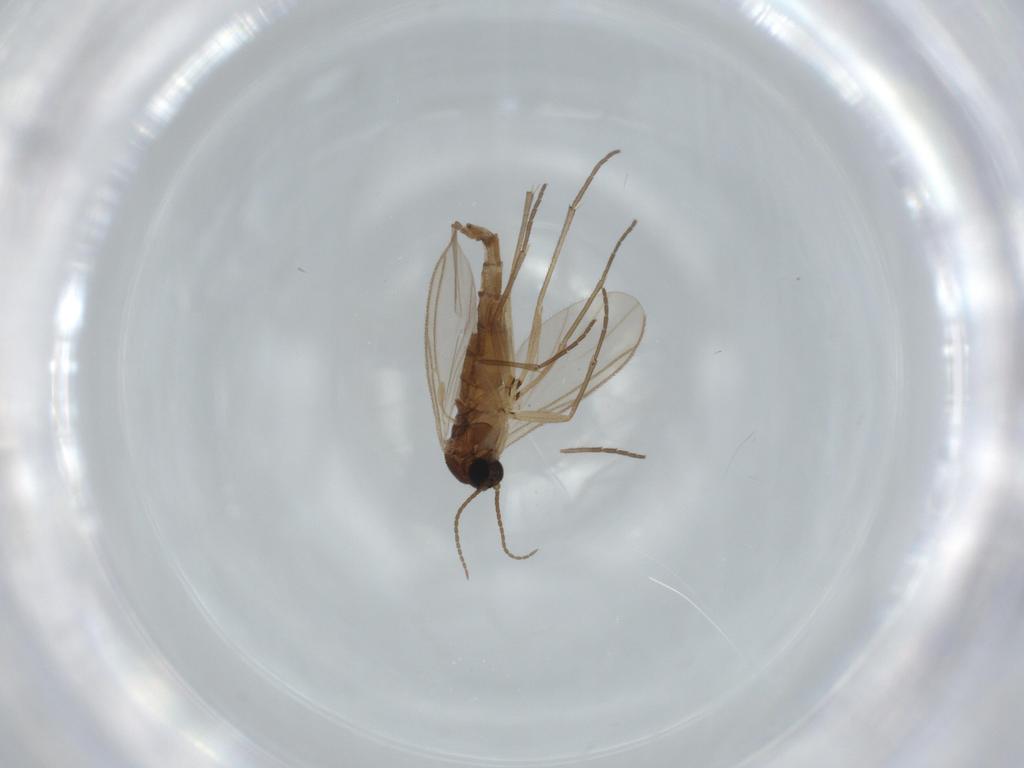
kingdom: Animalia
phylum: Arthropoda
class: Insecta
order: Diptera
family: Sciaridae
